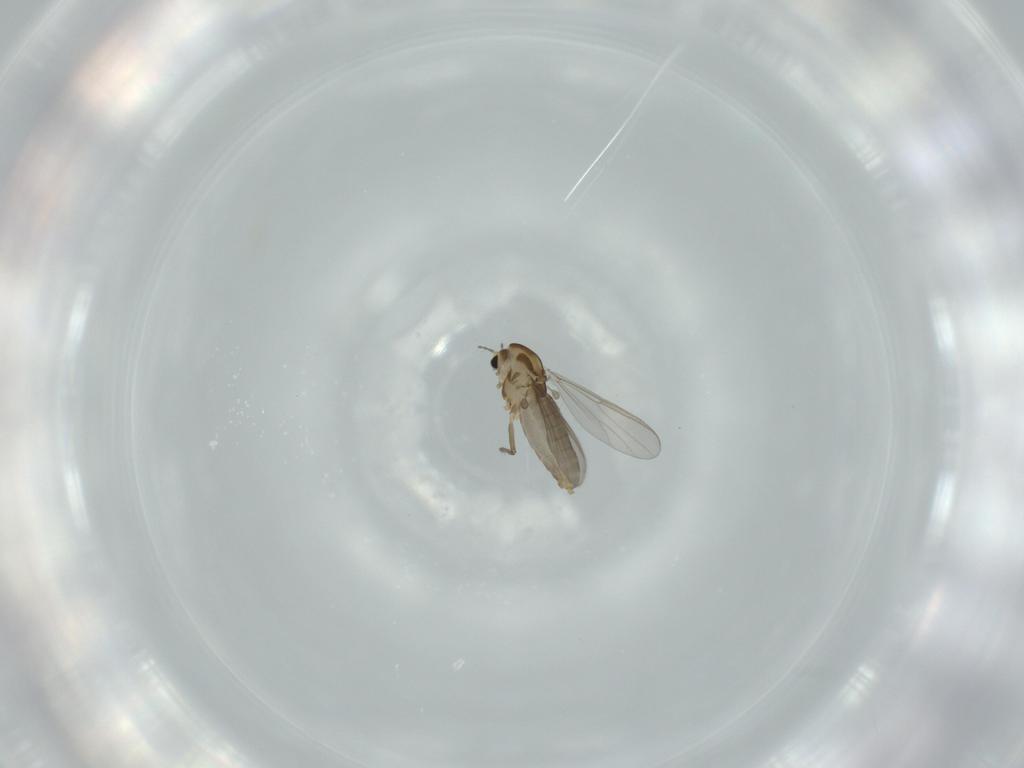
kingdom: Animalia
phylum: Arthropoda
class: Insecta
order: Diptera
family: Chironomidae
